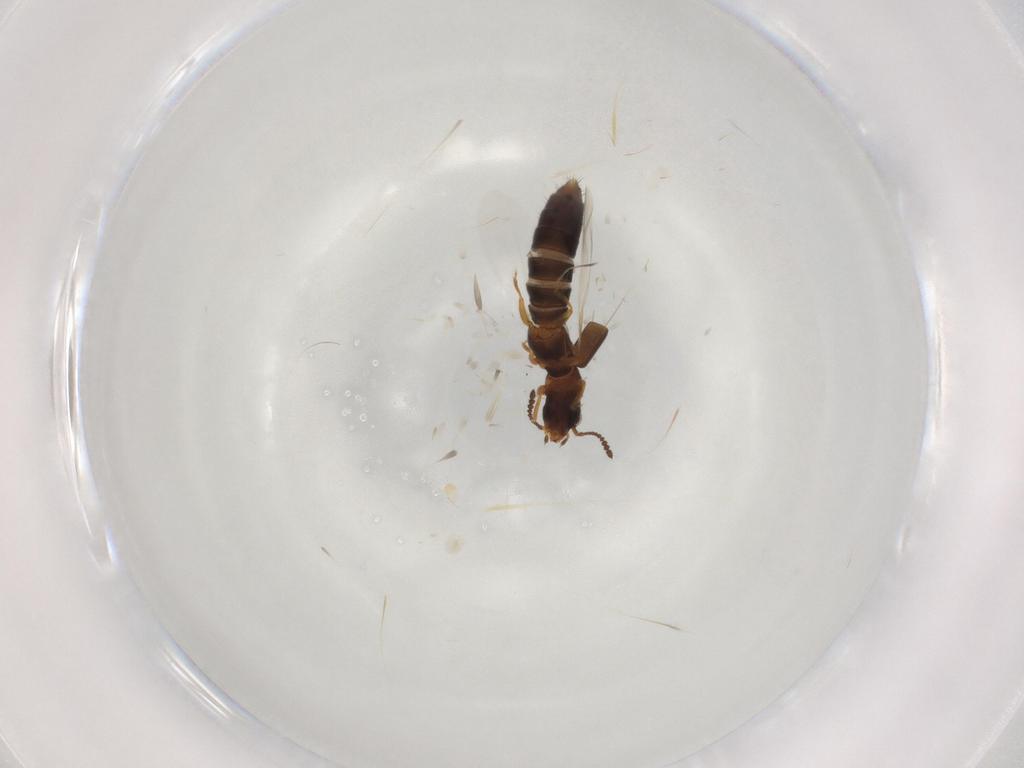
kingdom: Animalia
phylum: Arthropoda
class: Insecta
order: Coleoptera
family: Staphylinidae
